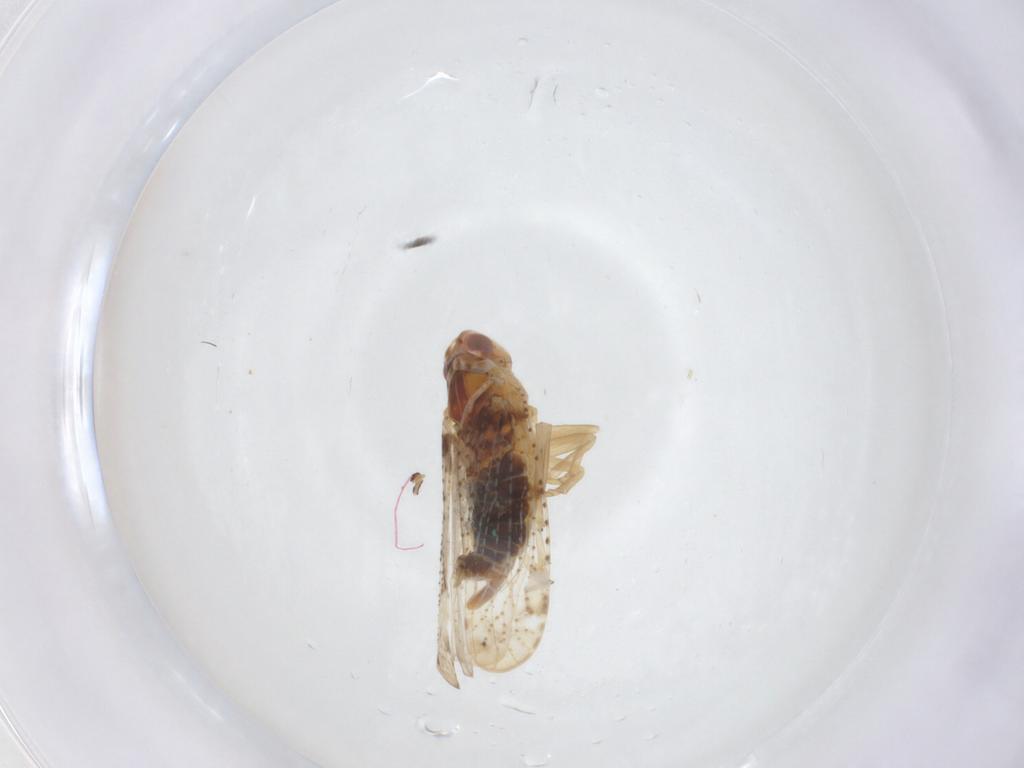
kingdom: Animalia
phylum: Arthropoda
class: Insecta
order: Hemiptera
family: Cixiidae
